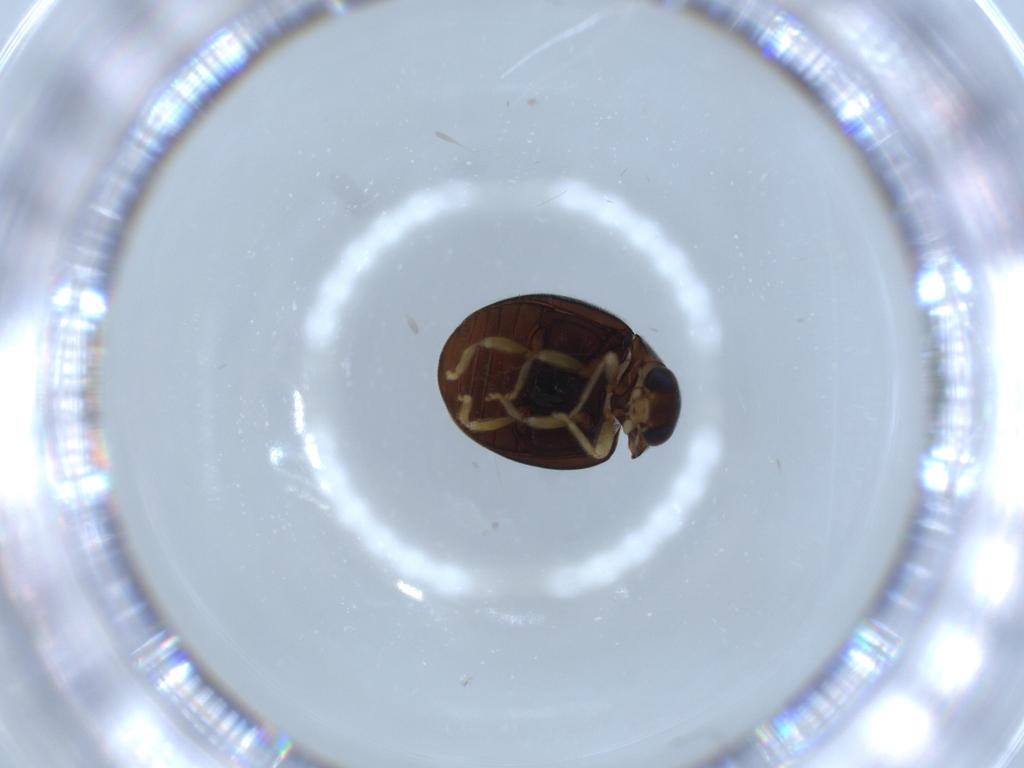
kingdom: Animalia
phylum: Arthropoda
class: Insecta
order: Coleoptera
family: Coccinellidae
